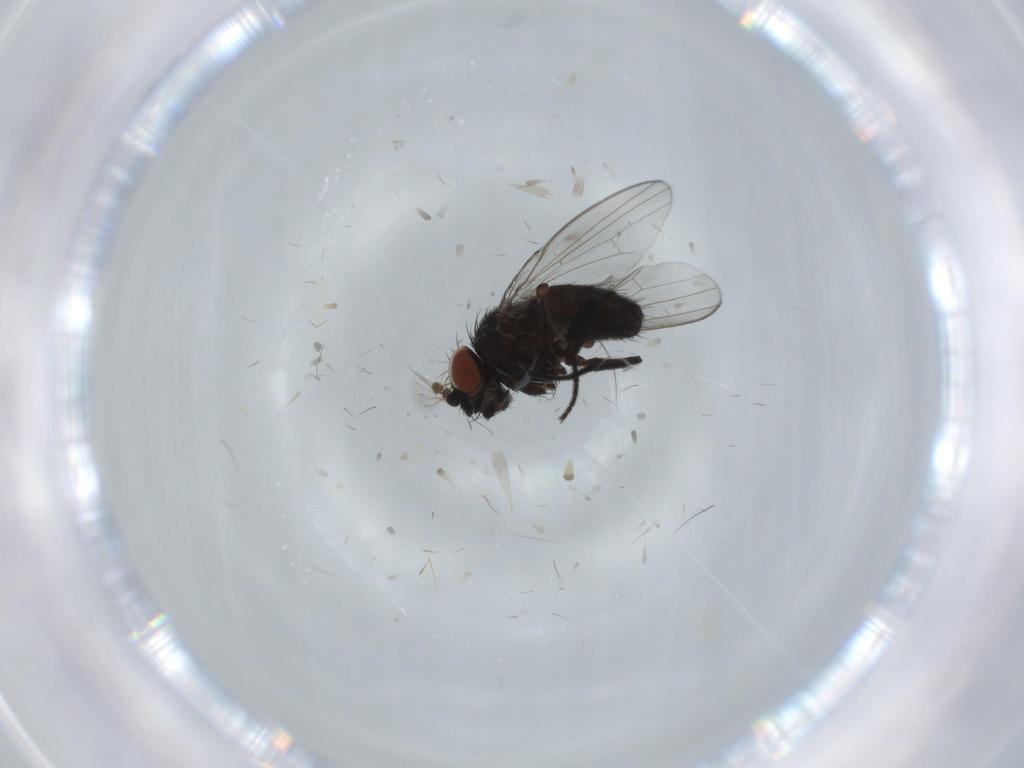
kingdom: Animalia
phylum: Arthropoda
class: Insecta
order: Diptera
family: Milichiidae
